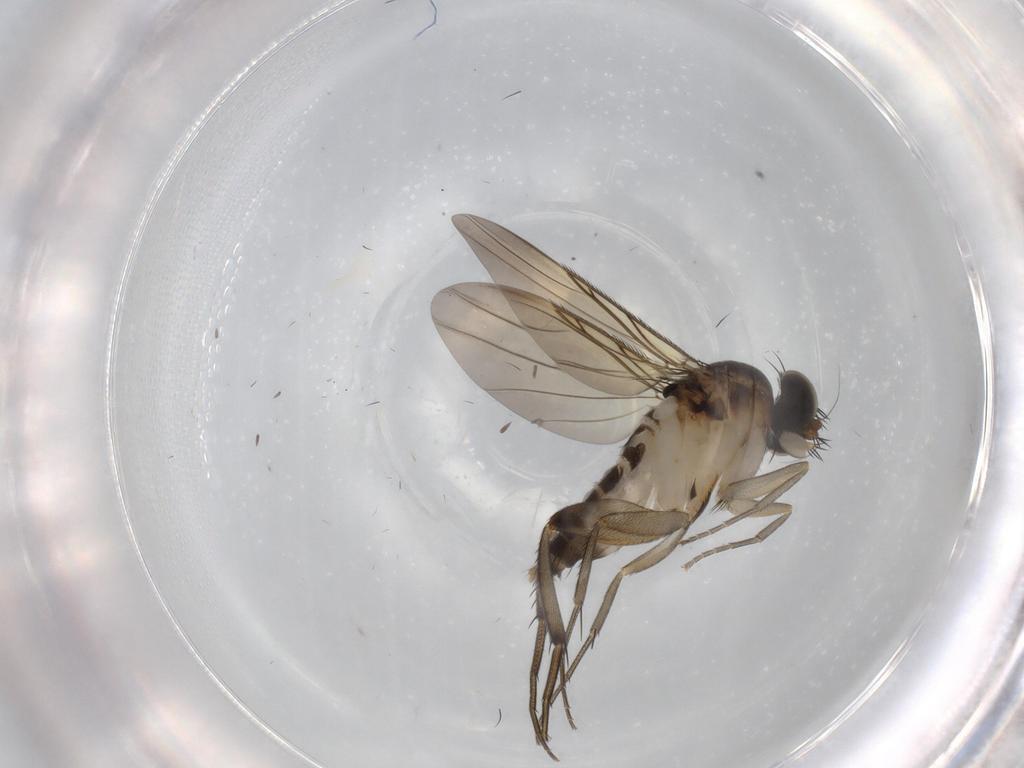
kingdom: Animalia
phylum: Arthropoda
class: Insecta
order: Diptera
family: Phoridae
